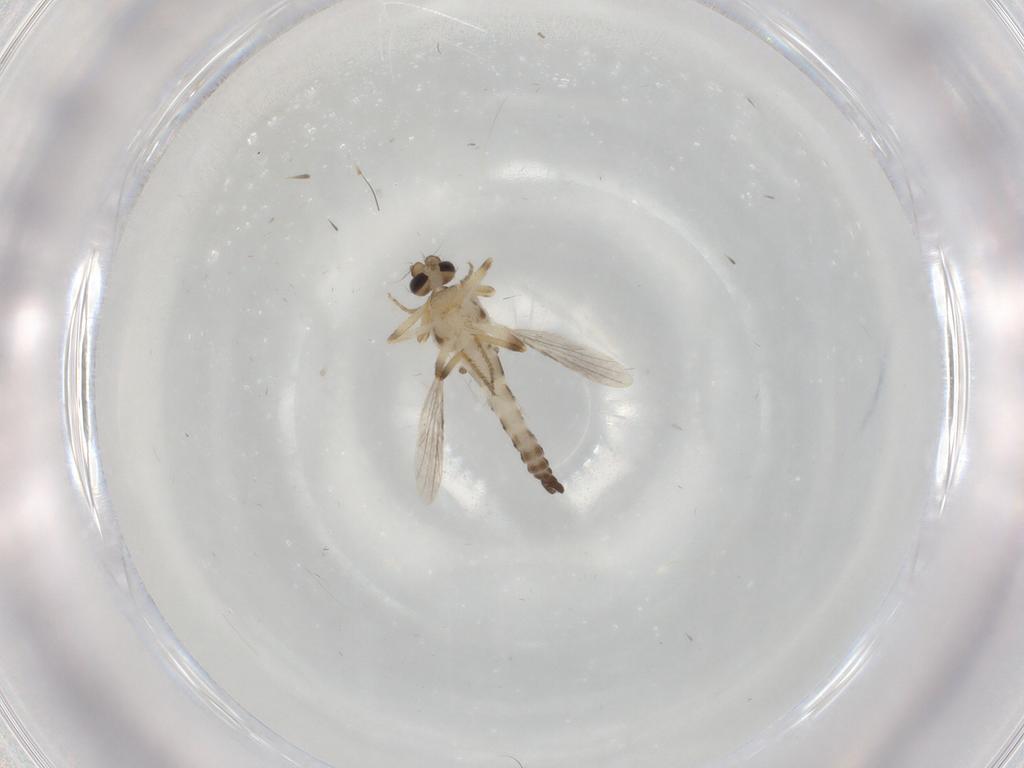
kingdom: Animalia
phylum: Arthropoda
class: Insecta
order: Diptera
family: Ceratopogonidae
